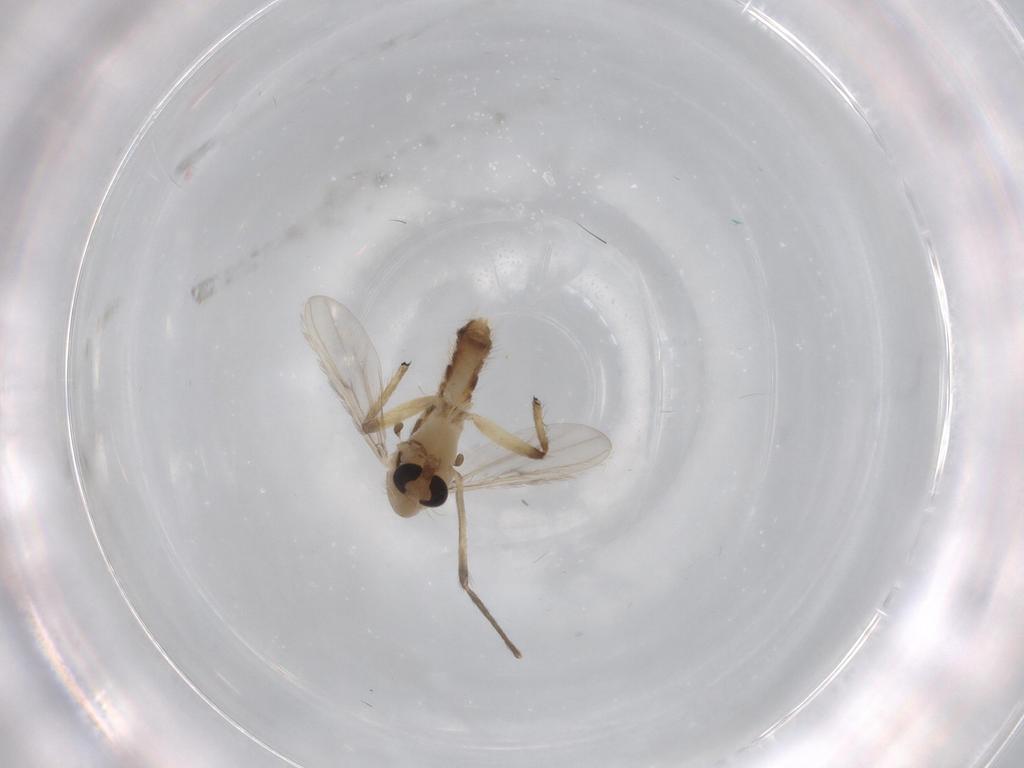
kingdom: Animalia
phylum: Arthropoda
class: Insecta
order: Diptera
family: Chironomidae
